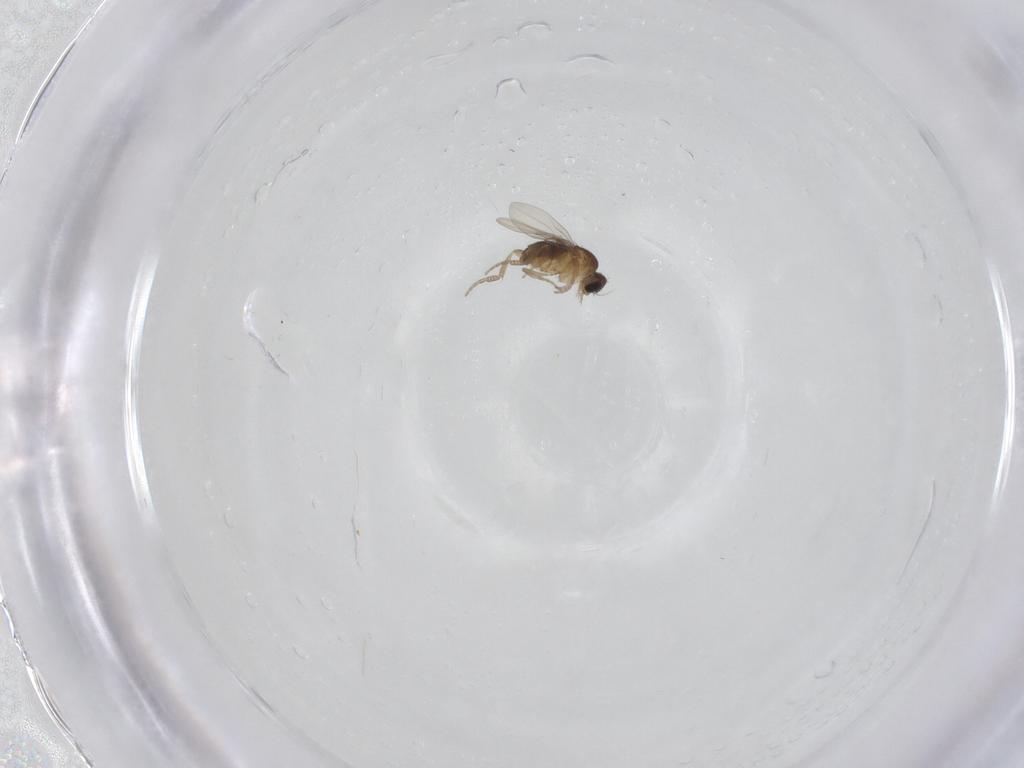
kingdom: Animalia
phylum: Arthropoda
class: Insecta
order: Diptera
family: Phoridae
